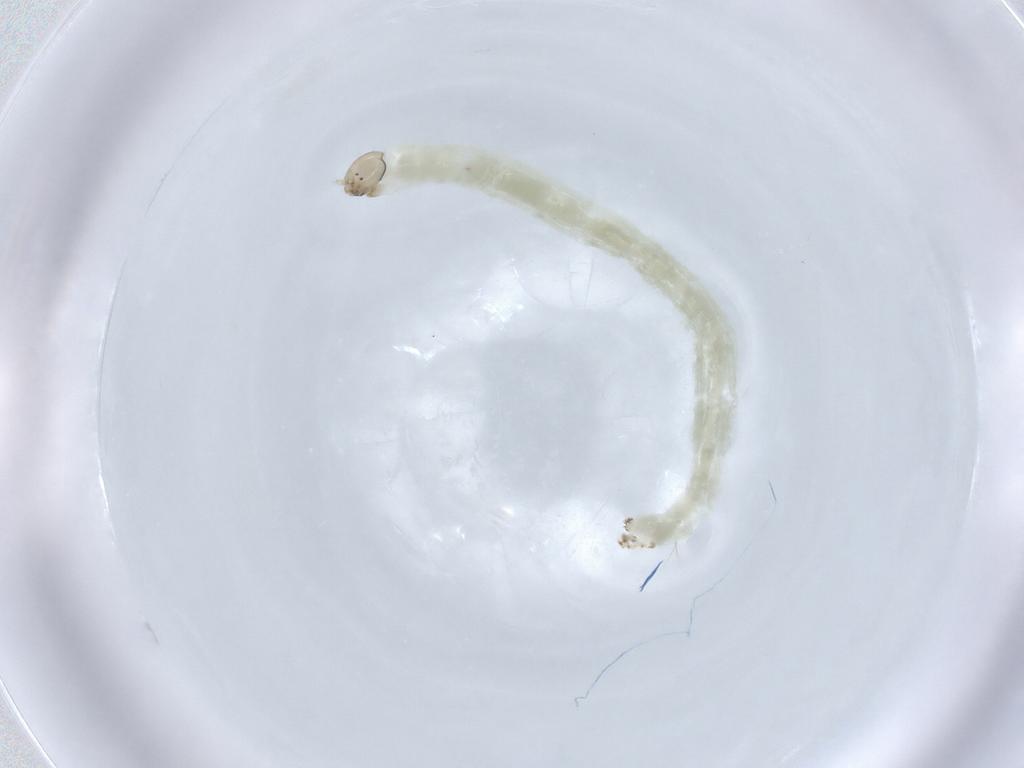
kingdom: Animalia
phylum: Arthropoda
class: Insecta
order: Diptera
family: Chironomidae
